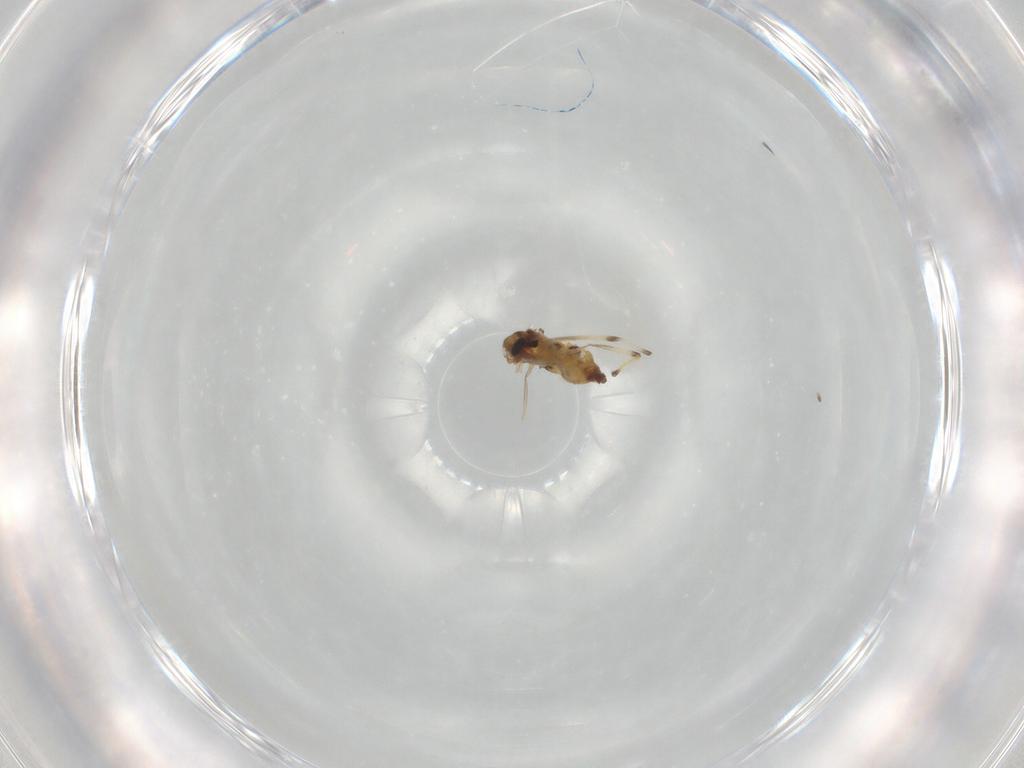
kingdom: Animalia
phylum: Arthropoda
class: Insecta
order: Diptera
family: Chironomidae
